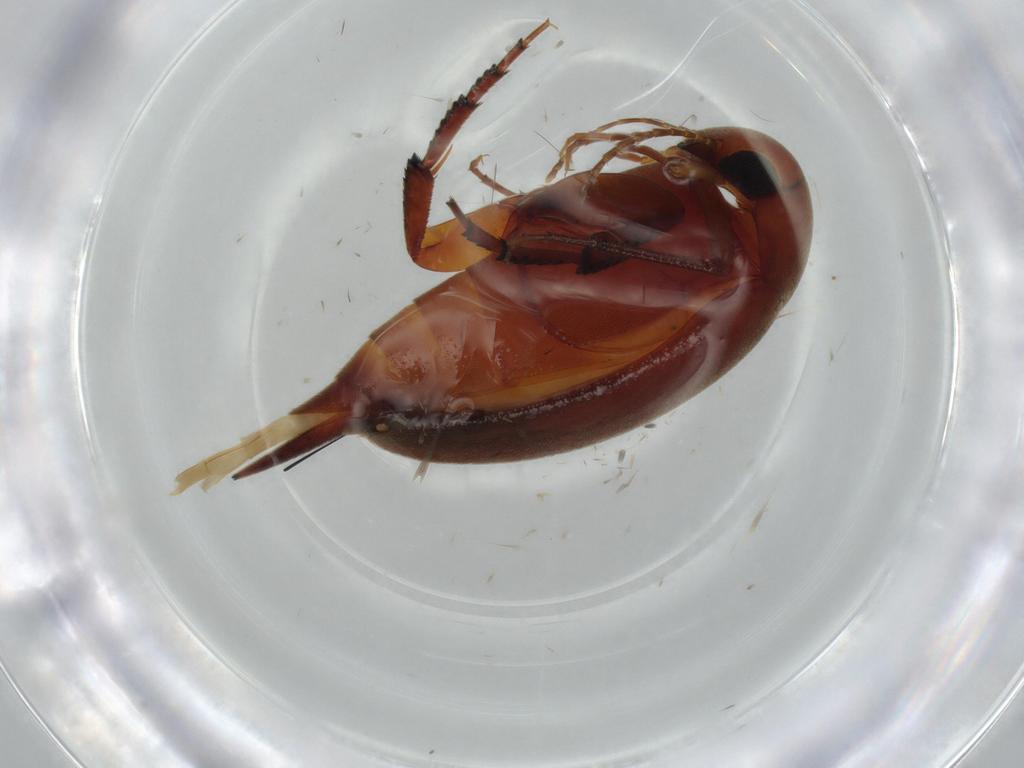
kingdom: Animalia
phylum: Arthropoda
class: Insecta
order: Coleoptera
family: Mordellidae
